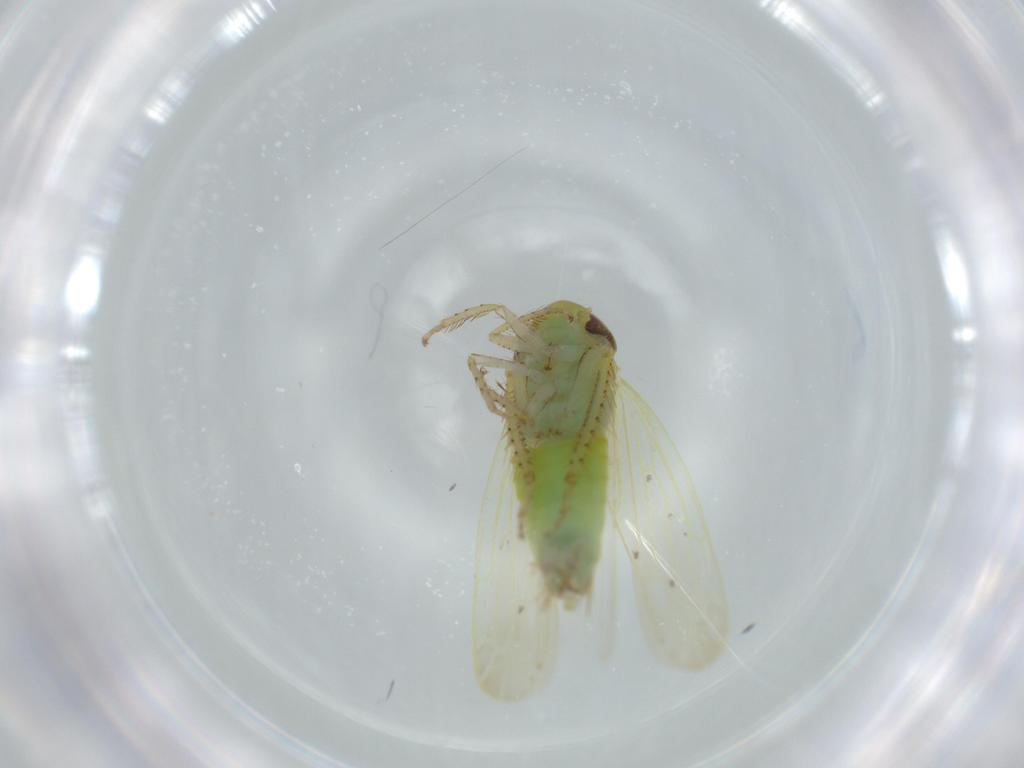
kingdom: Animalia
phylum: Arthropoda
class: Insecta
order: Hemiptera
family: Cicadellidae
